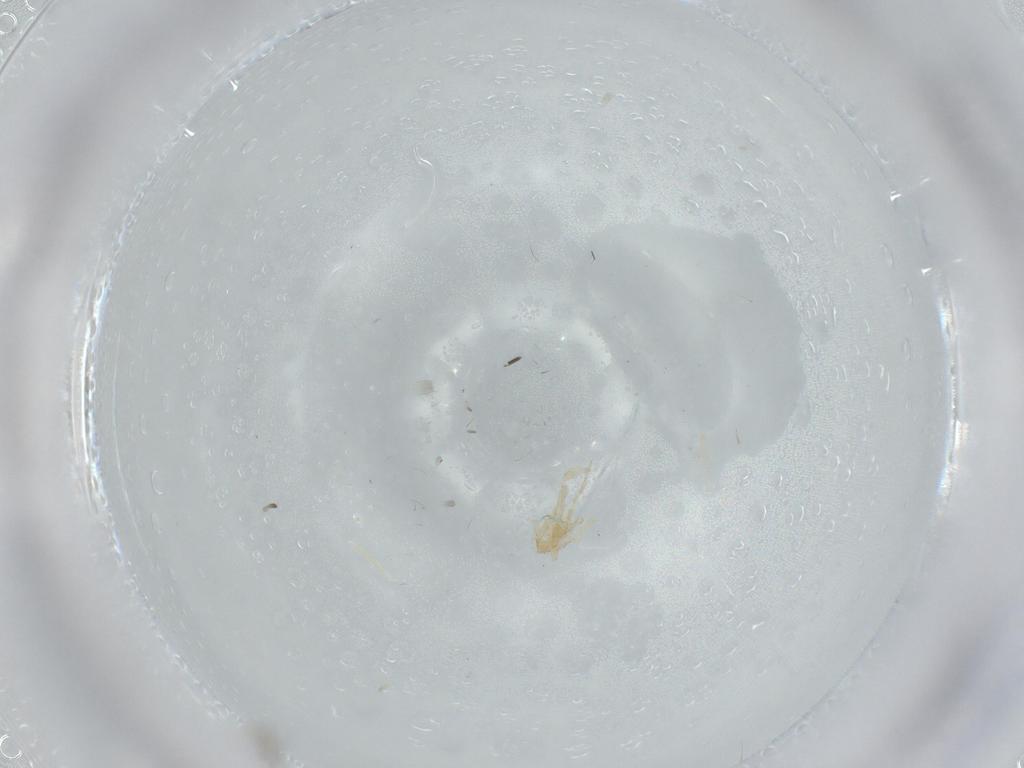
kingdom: Animalia
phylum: Arthropoda
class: Insecta
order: Hymenoptera
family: Aphelinidae
